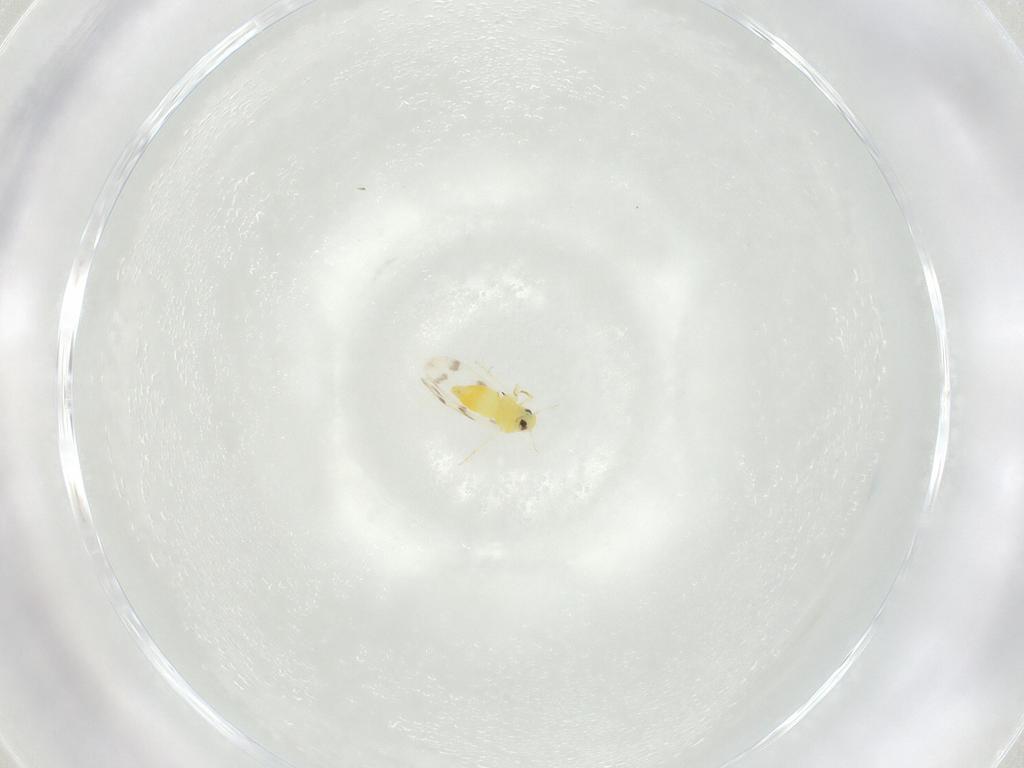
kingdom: Animalia
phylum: Arthropoda
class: Insecta
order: Hemiptera
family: Aleyrodidae
